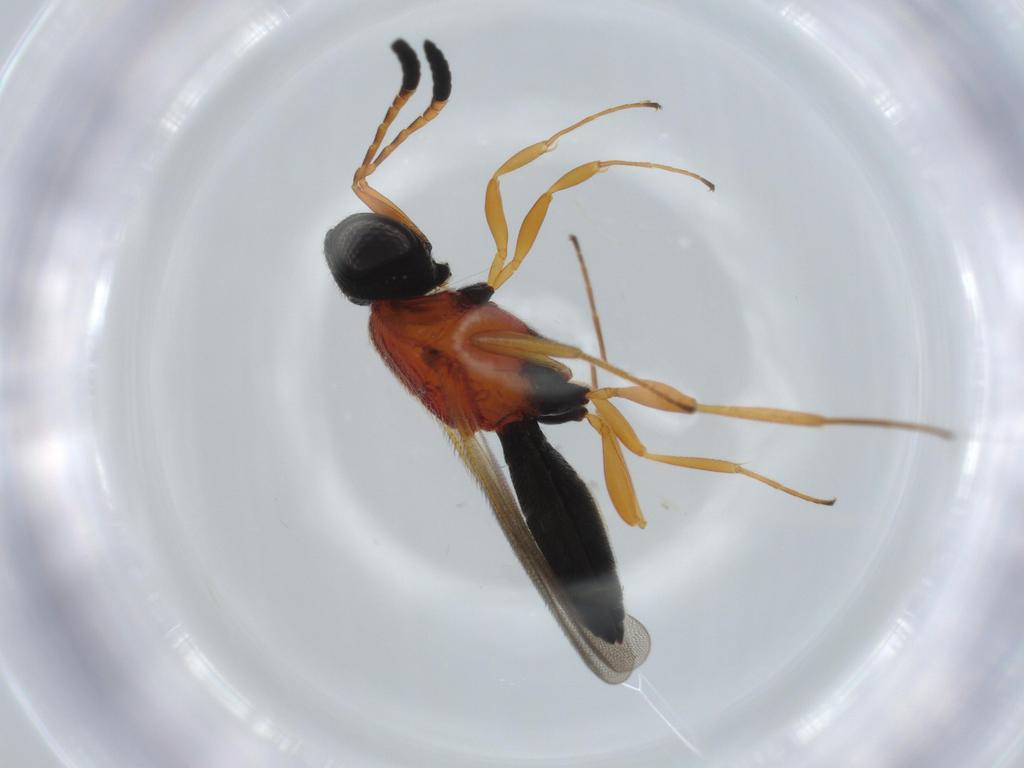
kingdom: Animalia
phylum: Arthropoda
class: Insecta
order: Hymenoptera
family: Scelionidae
